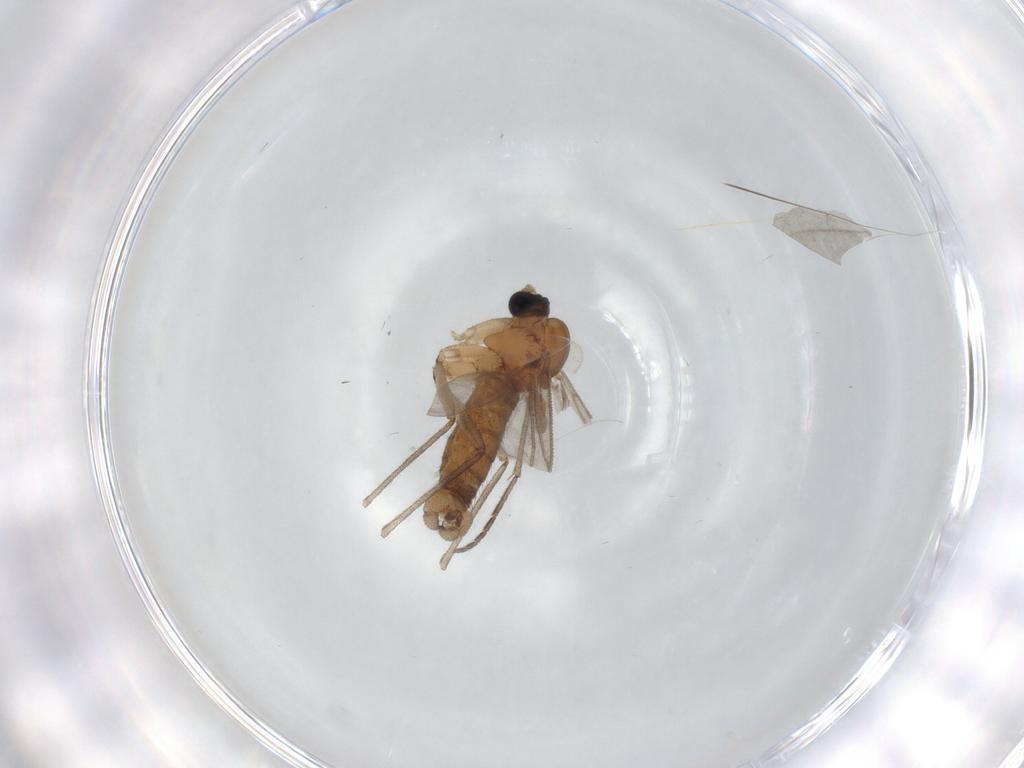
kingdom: Animalia
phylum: Arthropoda
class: Insecta
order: Diptera
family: Sciaridae
